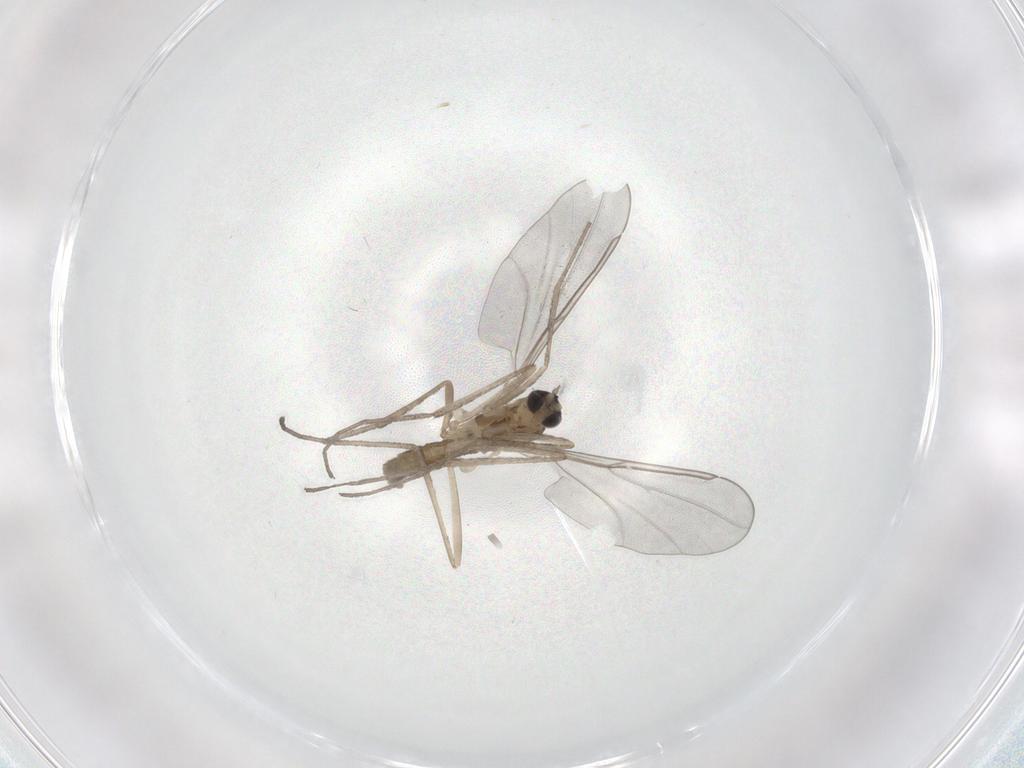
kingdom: Animalia
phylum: Arthropoda
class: Insecta
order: Diptera
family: Cecidomyiidae
